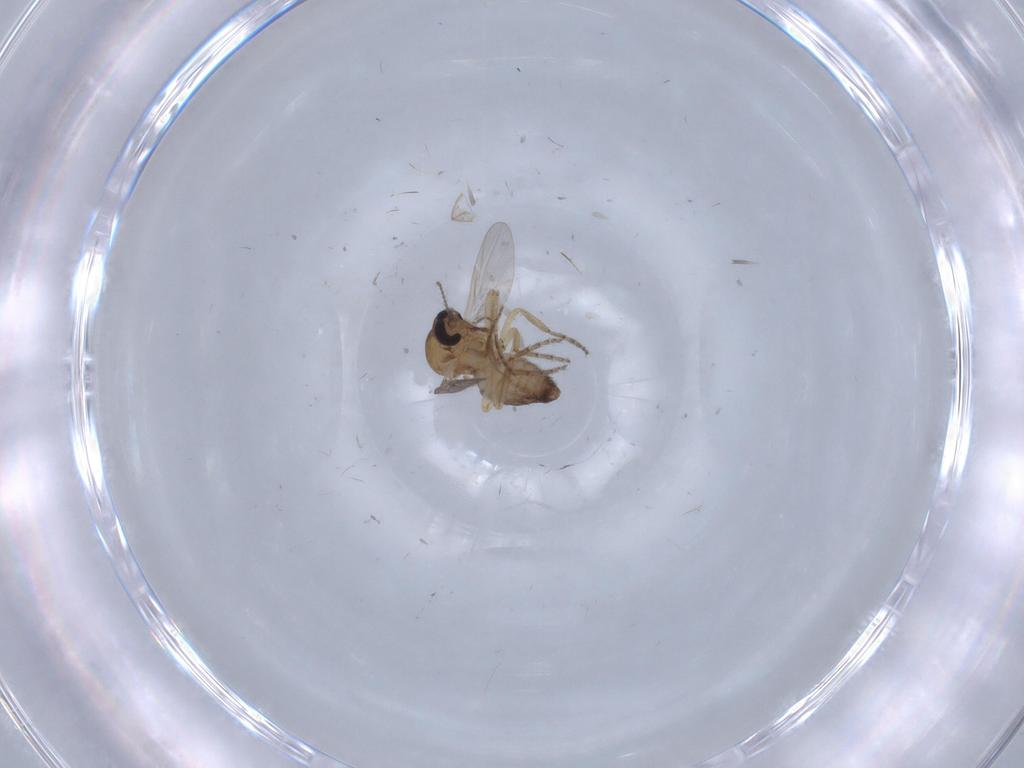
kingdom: Animalia
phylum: Arthropoda
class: Insecta
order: Diptera
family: Ceratopogonidae
